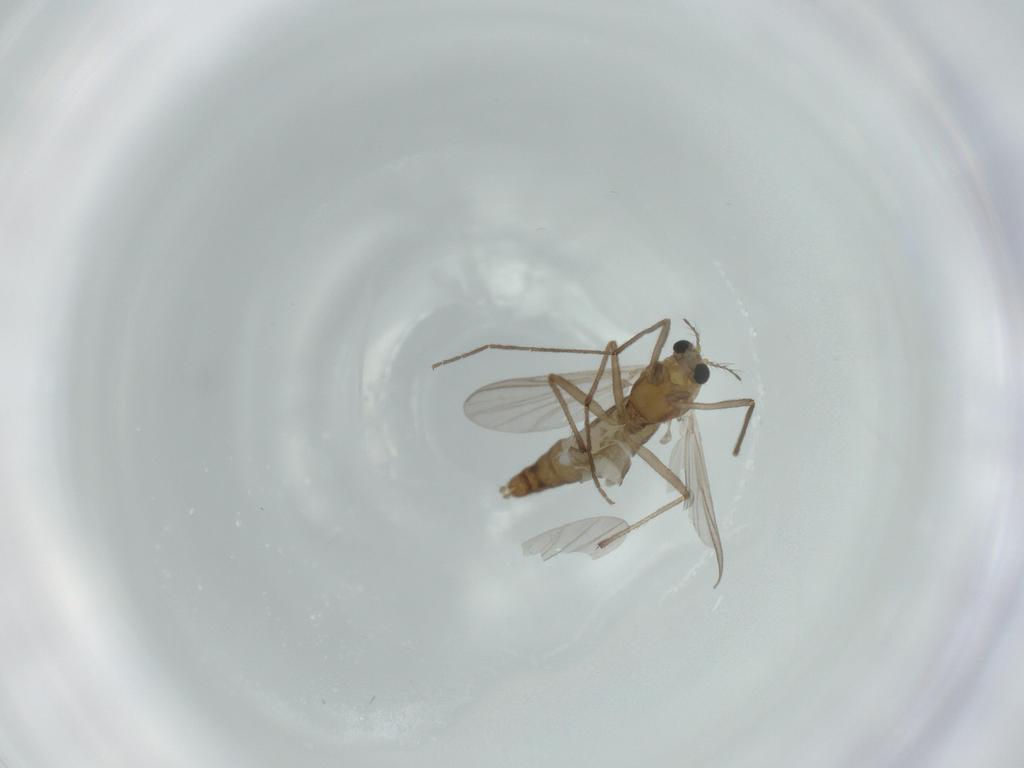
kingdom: Animalia
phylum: Arthropoda
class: Insecta
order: Diptera
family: Chironomidae
